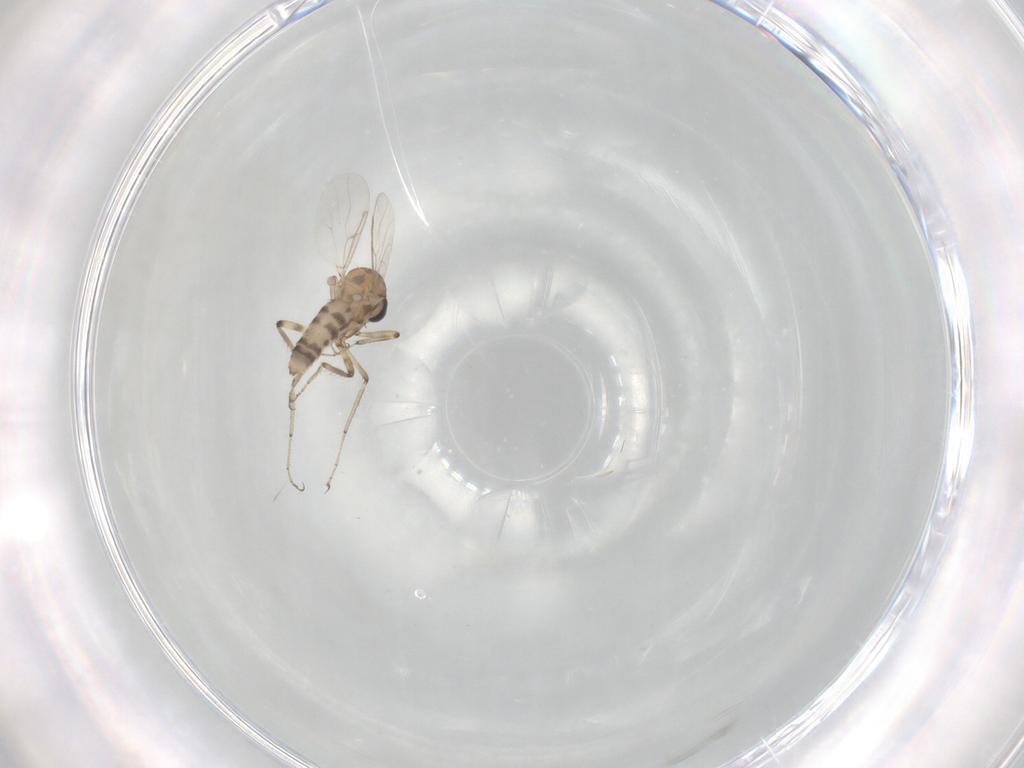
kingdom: Animalia
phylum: Arthropoda
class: Insecta
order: Diptera
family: Ceratopogonidae
